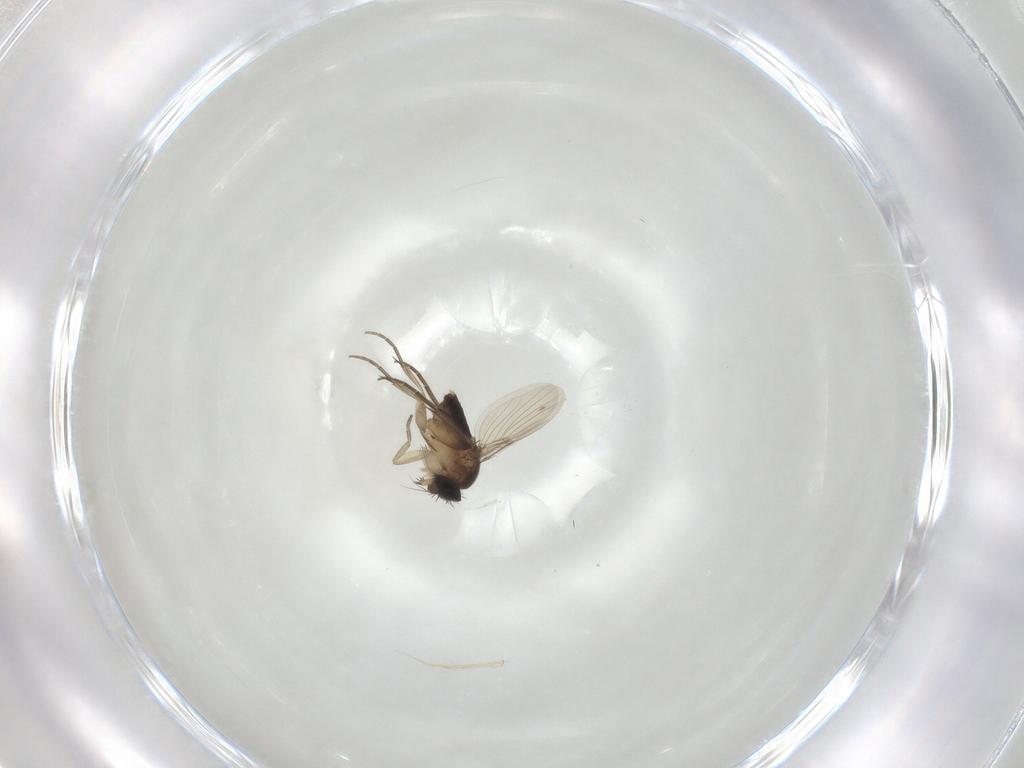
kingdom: Animalia
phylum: Arthropoda
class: Insecta
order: Diptera
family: Phoridae
